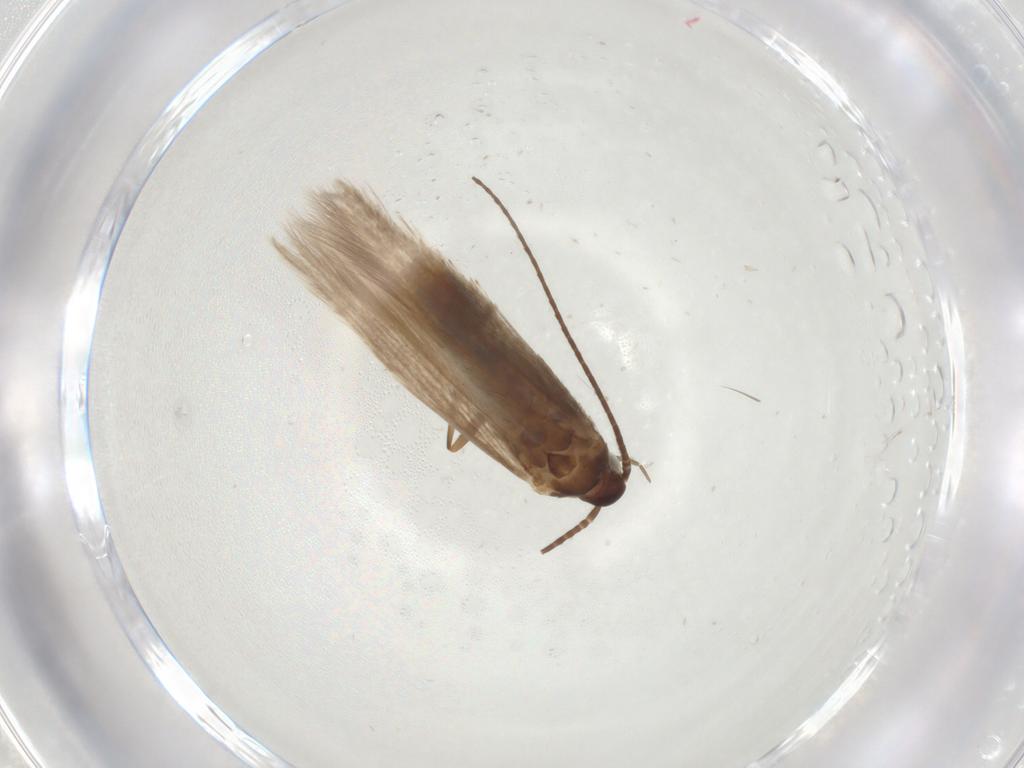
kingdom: Animalia
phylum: Arthropoda
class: Insecta
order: Lepidoptera
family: Coleophoridae
